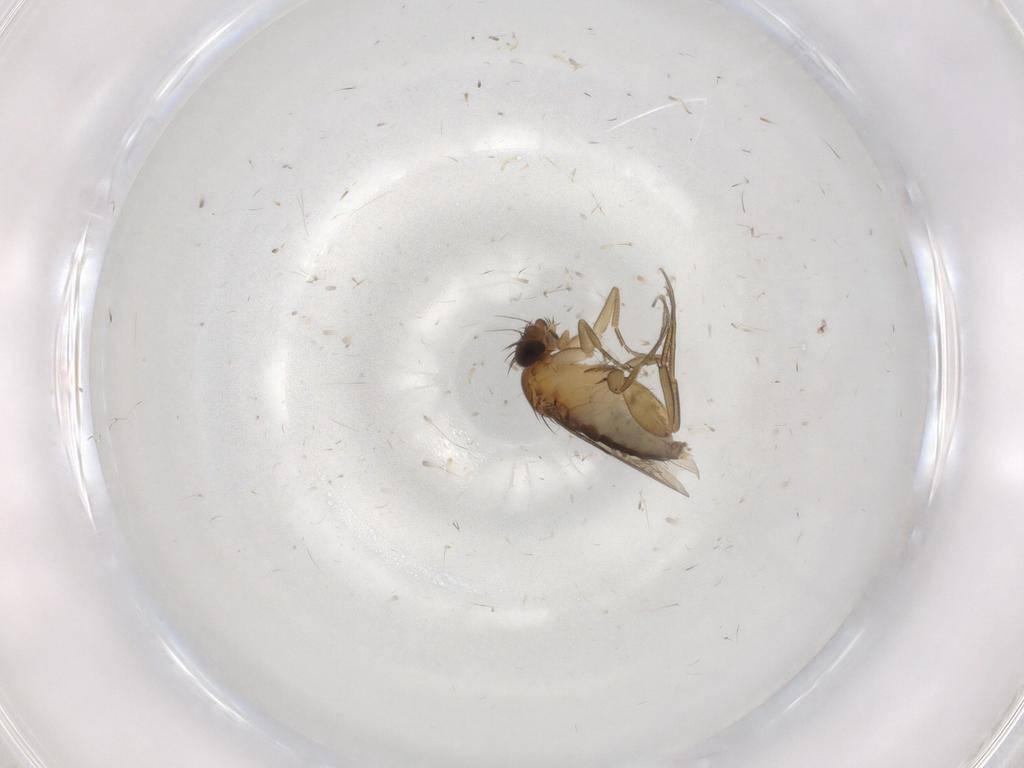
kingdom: Animalia
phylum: Arthropoda
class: Insecta
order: Diptera
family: Phoridae
